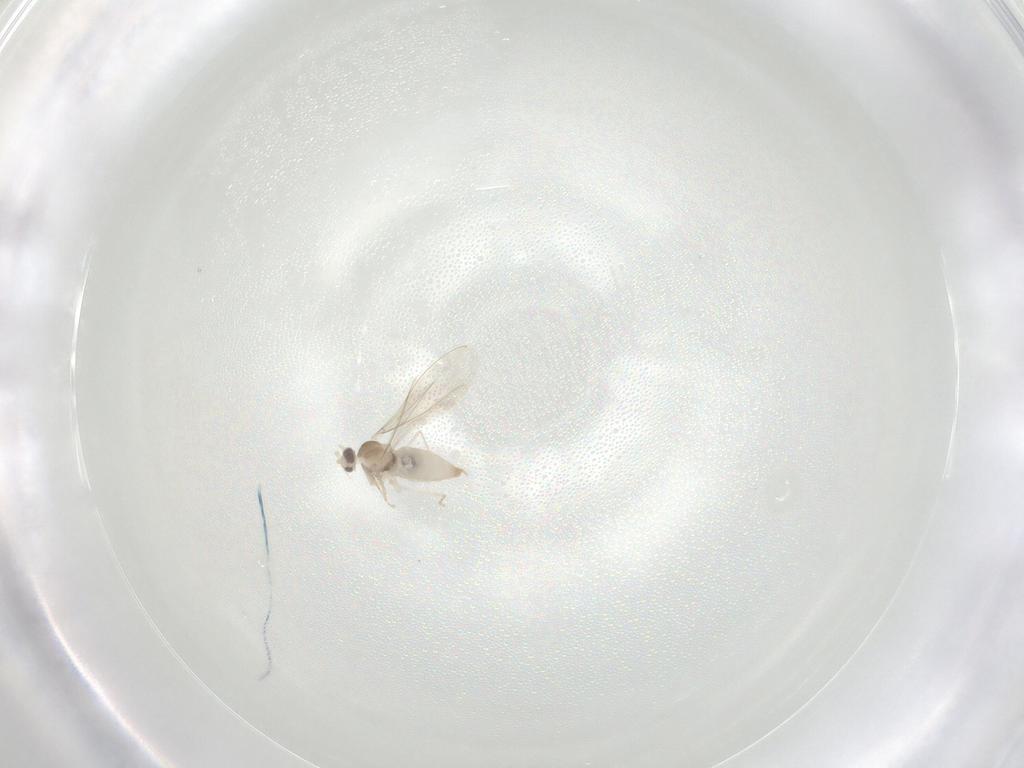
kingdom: Animalia
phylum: Arthropoda
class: Insecta
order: Diptera
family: Cecidomyiidae
